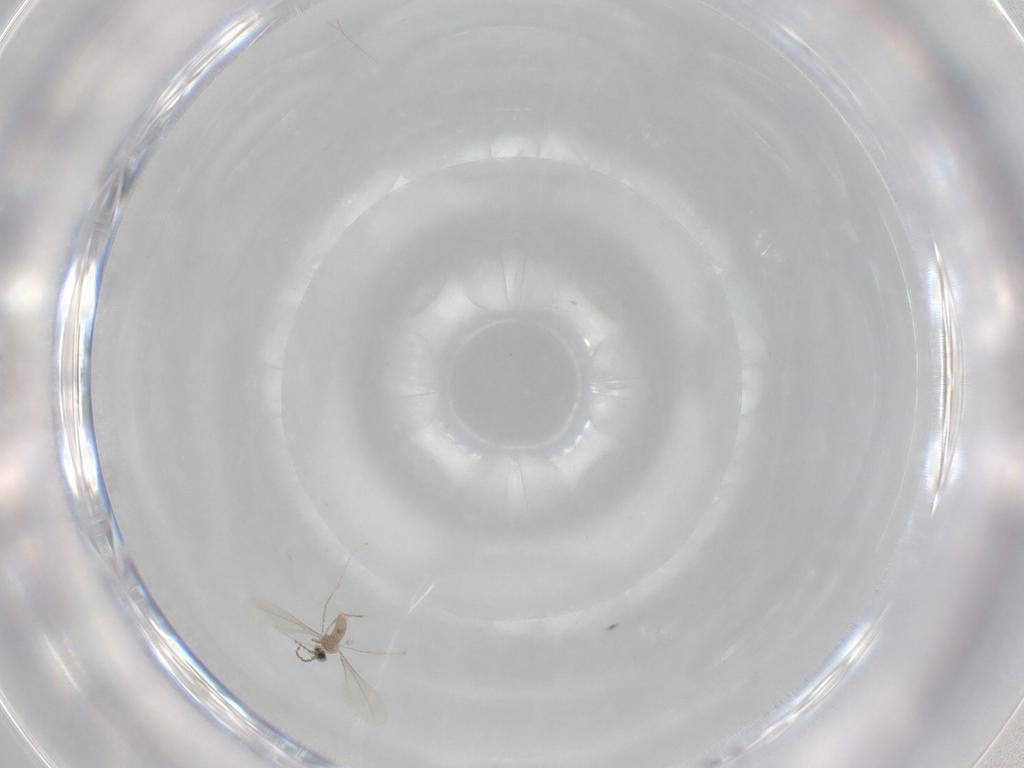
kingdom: Animalia
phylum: Arthropoda
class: Insecta
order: Diptera
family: Cecidomyiidae
